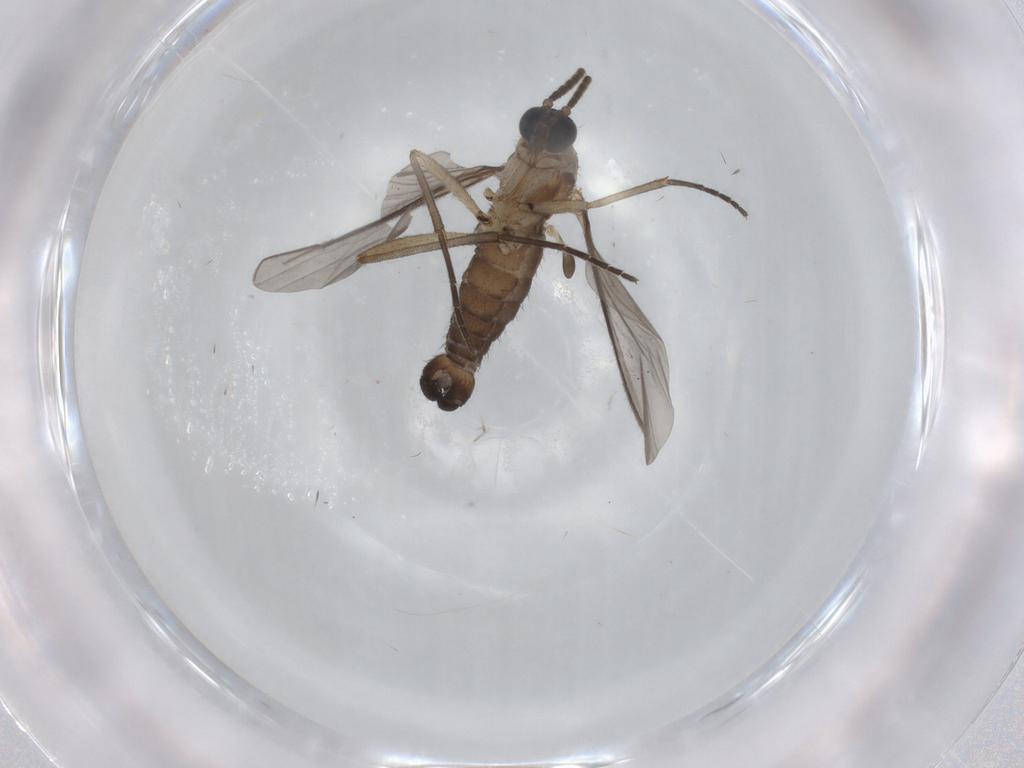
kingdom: Animalia
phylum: Arthropoda
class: Insecta
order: Diptera
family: Sciaridae
